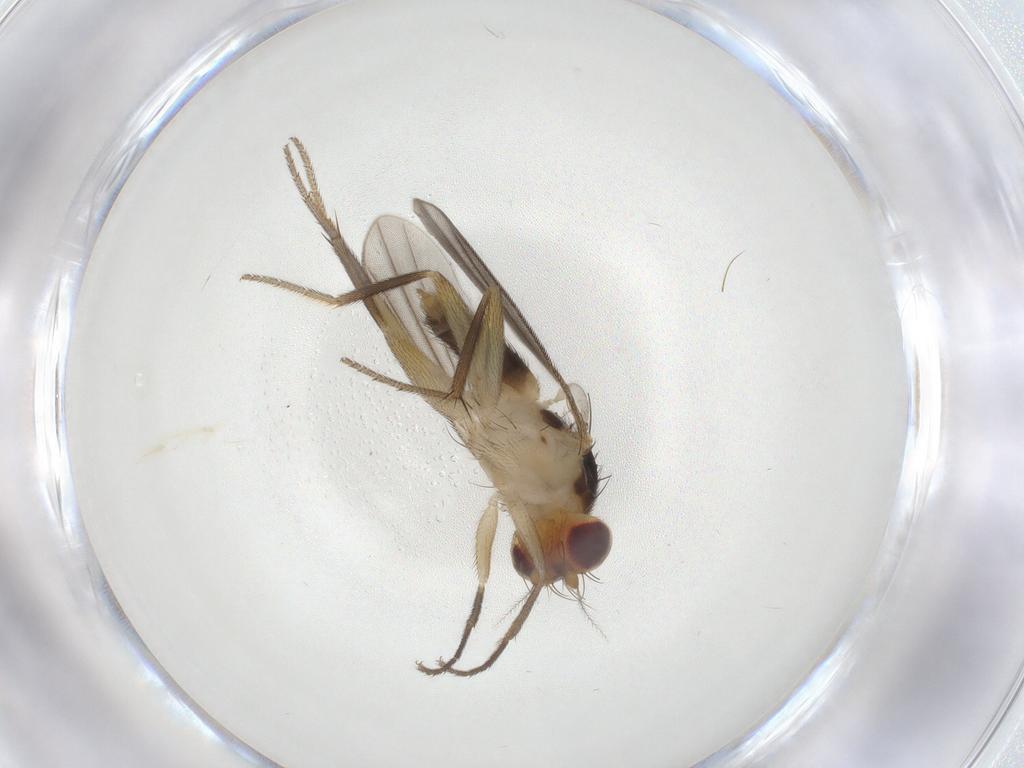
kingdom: Animalia
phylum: Arthropoda
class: Insecta
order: Diptera
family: Clusiidae
